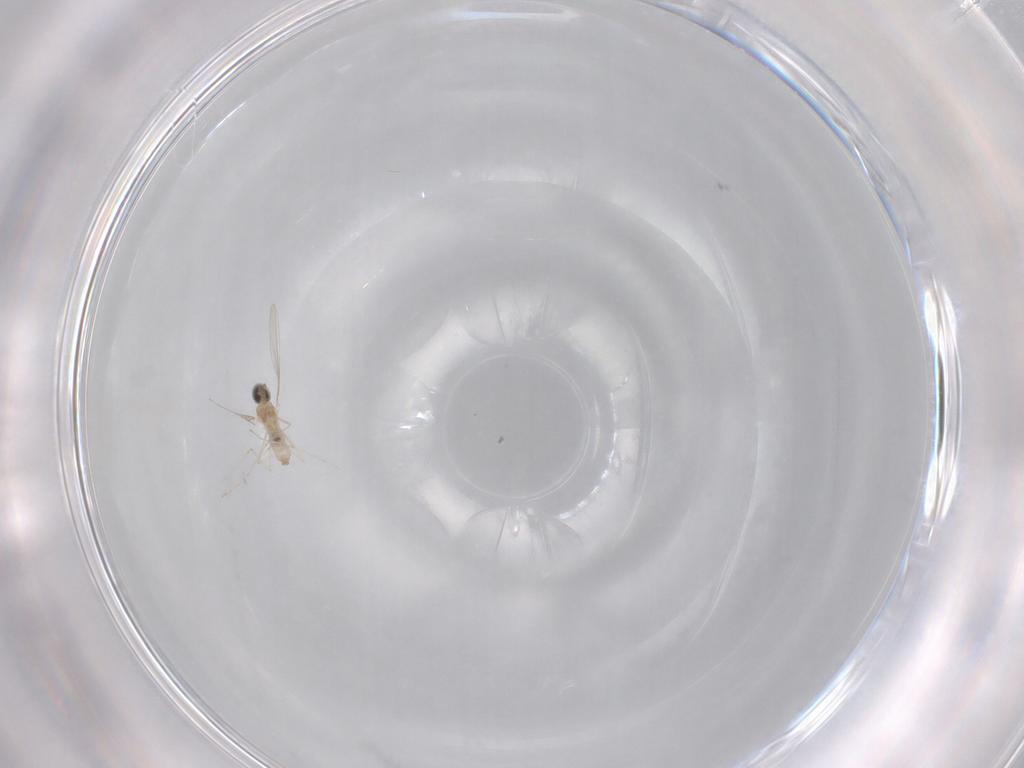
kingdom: Animalia
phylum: Arthropoda
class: Insecta
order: Diptera
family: Cecidomyiidae
